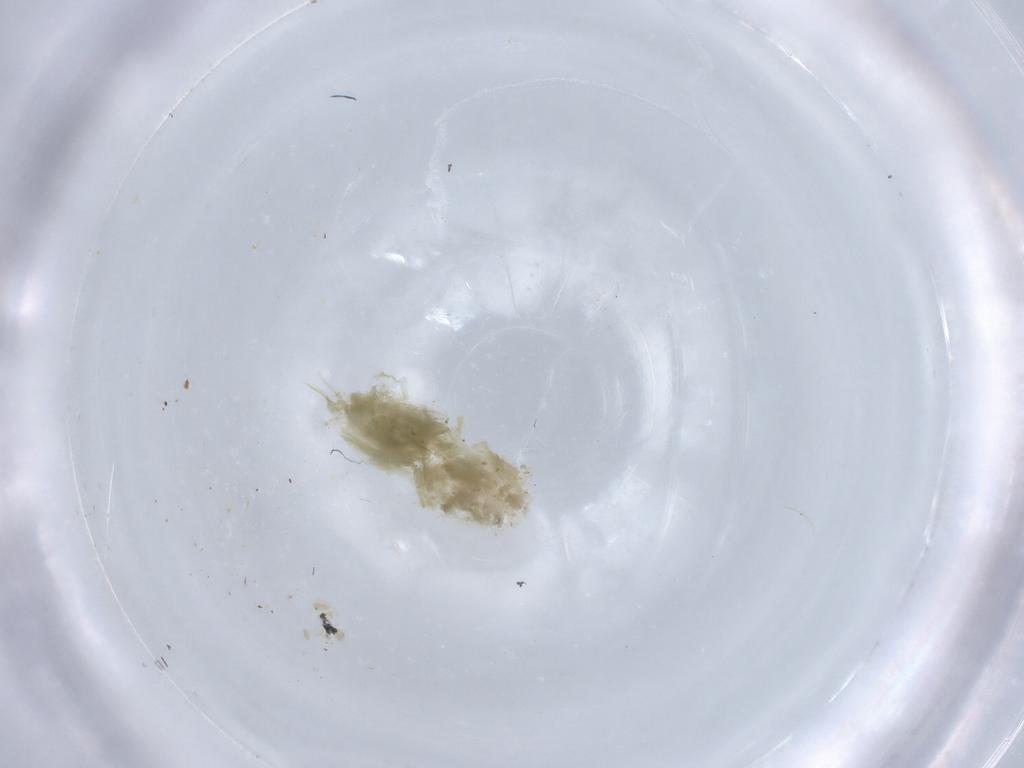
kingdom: Animalia
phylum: Arthropoda
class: Insecta
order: Diptera
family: Chironomidae
